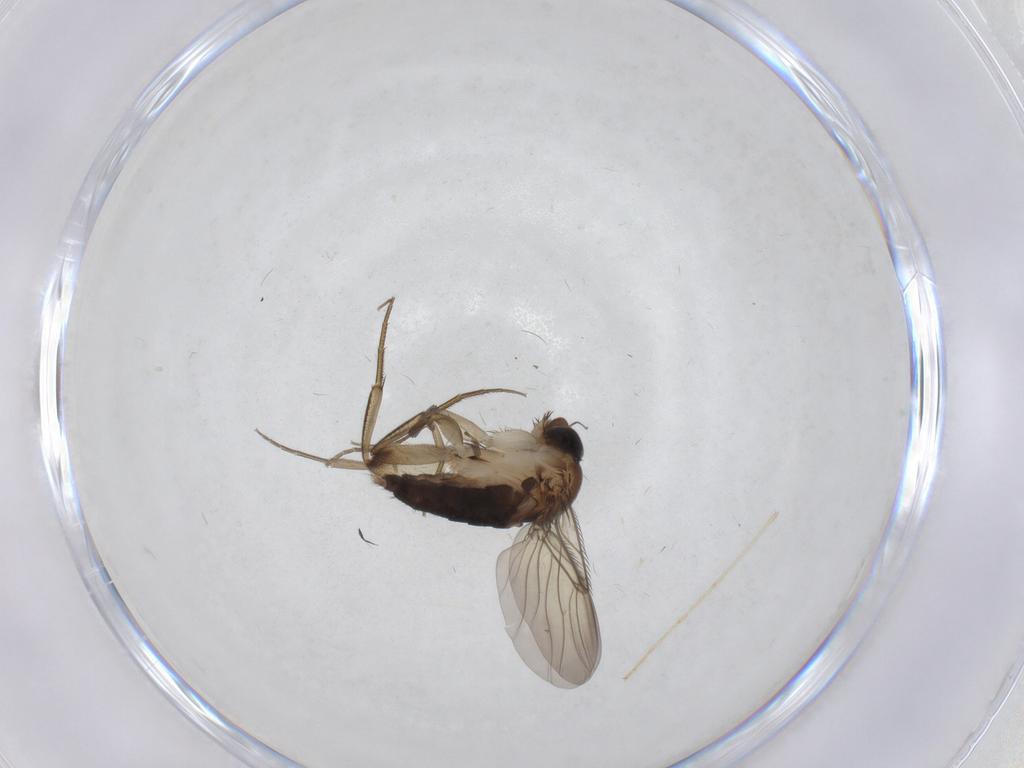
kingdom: Animalia
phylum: Arthropoda
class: Insecta
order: Diptera
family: Phoridae
